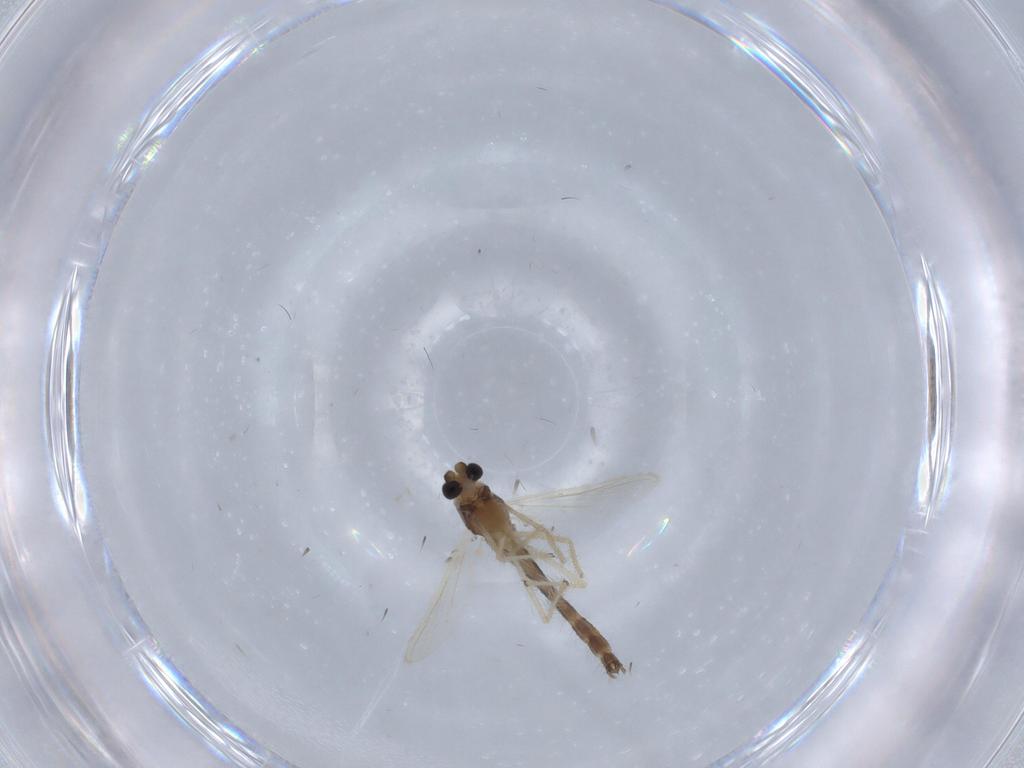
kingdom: Animalia
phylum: Arthropoda
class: Insecta
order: Diptera
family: Chironomidae
